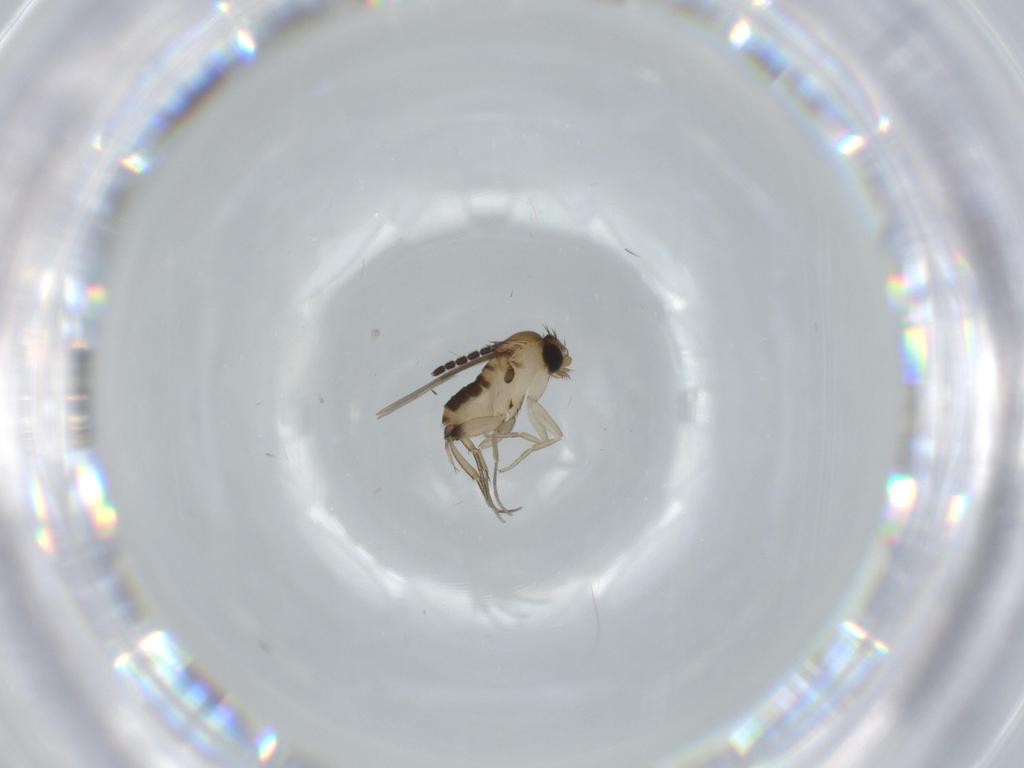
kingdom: Animalia
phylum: Arthropoda
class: Insecta
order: Diptera
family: Sciaridae
